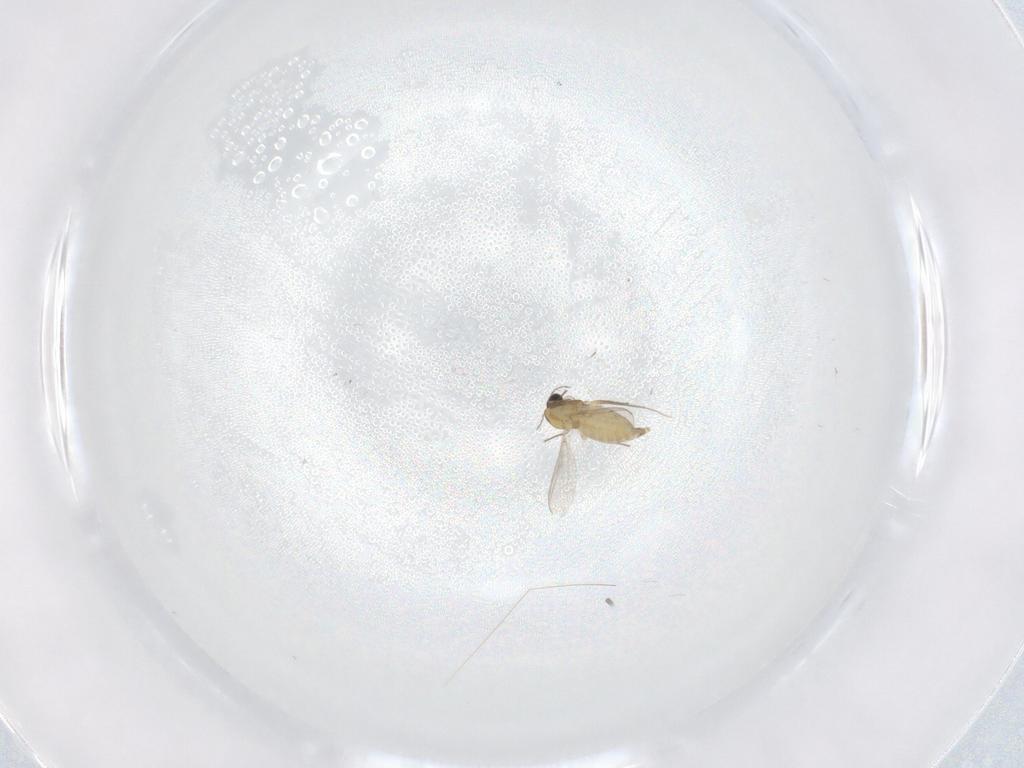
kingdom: Animalia
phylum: Arthropoda
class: Insecta
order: Diptera
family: Chironomidae
